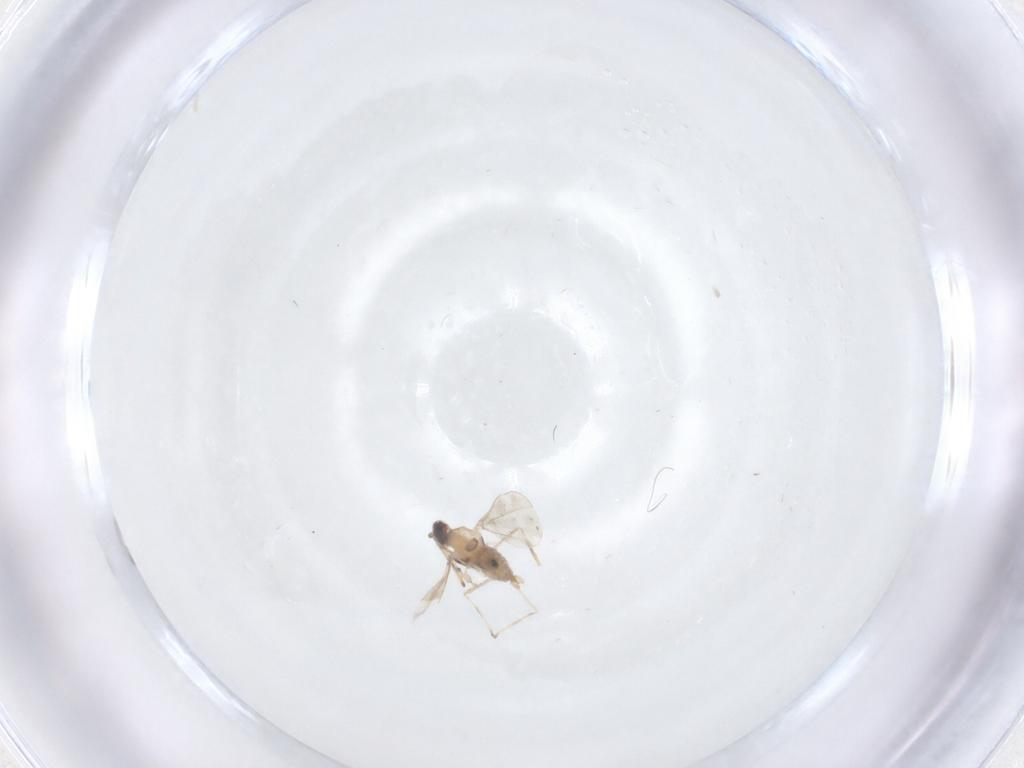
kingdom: Animalia
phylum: Arthropoda
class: Insecta
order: Diptera
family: Cecidomyiidae
